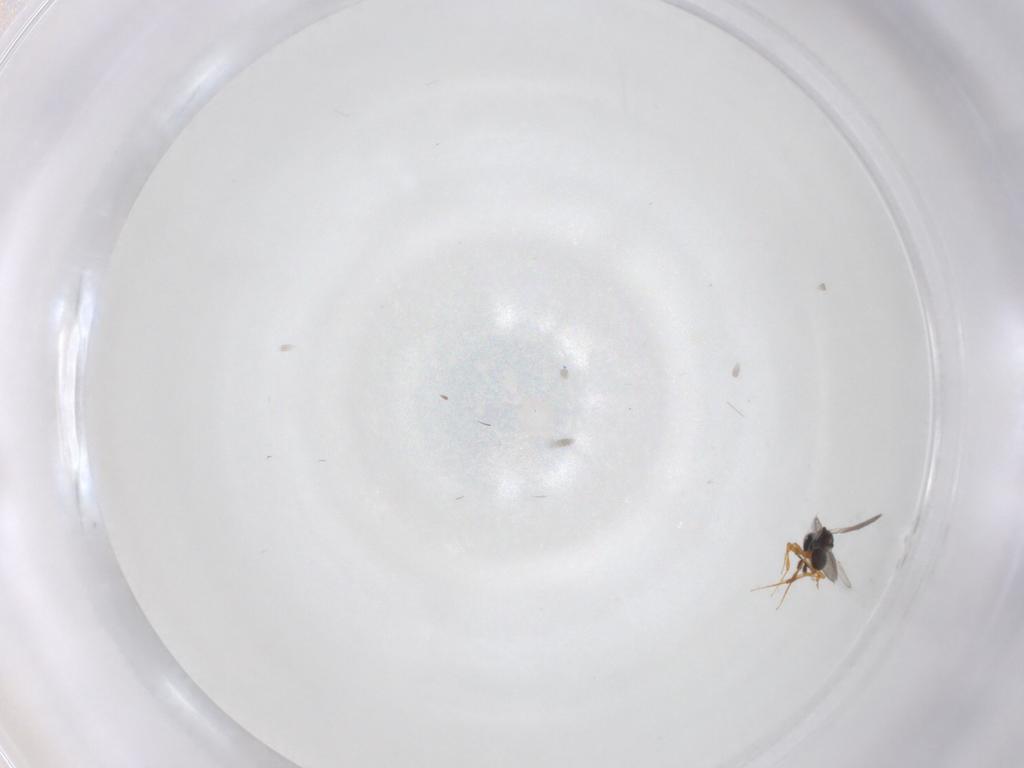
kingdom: Animalia
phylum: Arthropoda
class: Insecta
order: Hymenoptera
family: Platygastridae
